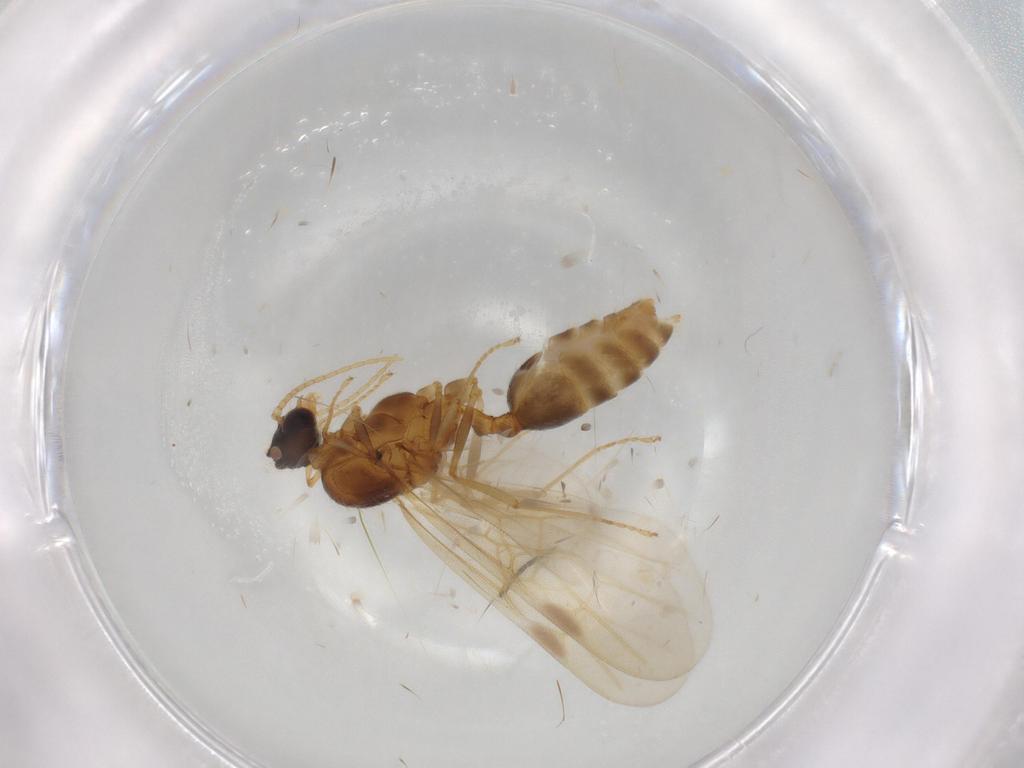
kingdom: Animalia
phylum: Arthropoda
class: Insecta
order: Hymenoptera
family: Formicidae
